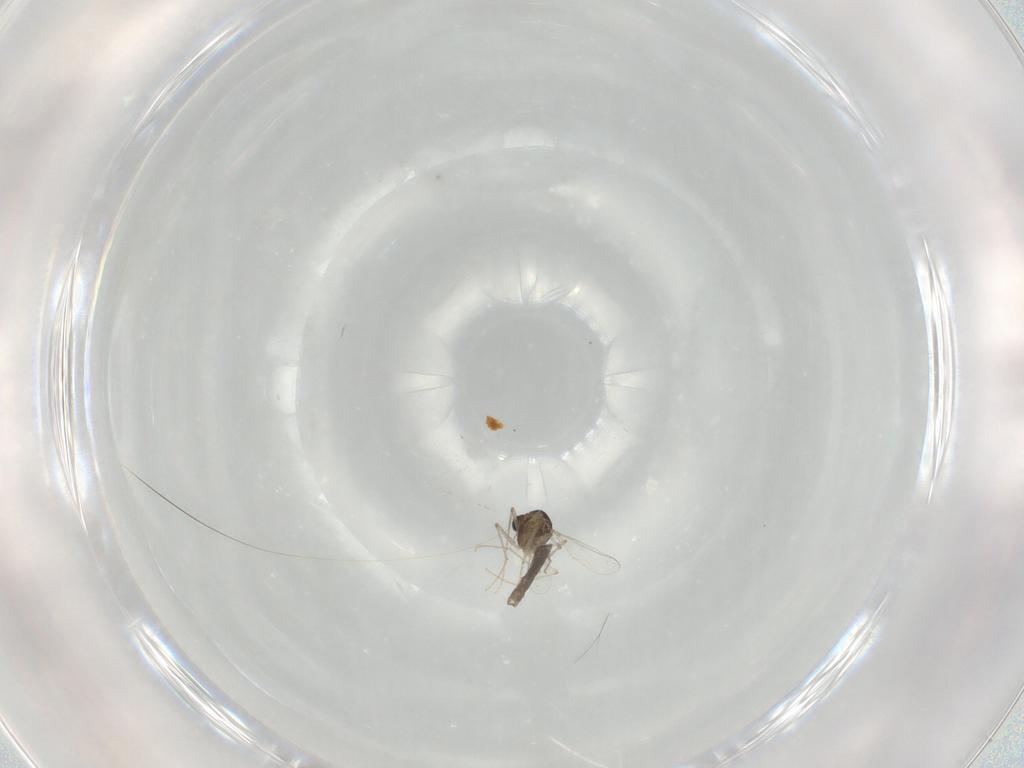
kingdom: Animalia
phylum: Arthropoda
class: Insecta
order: Diptera
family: Chironomidae
